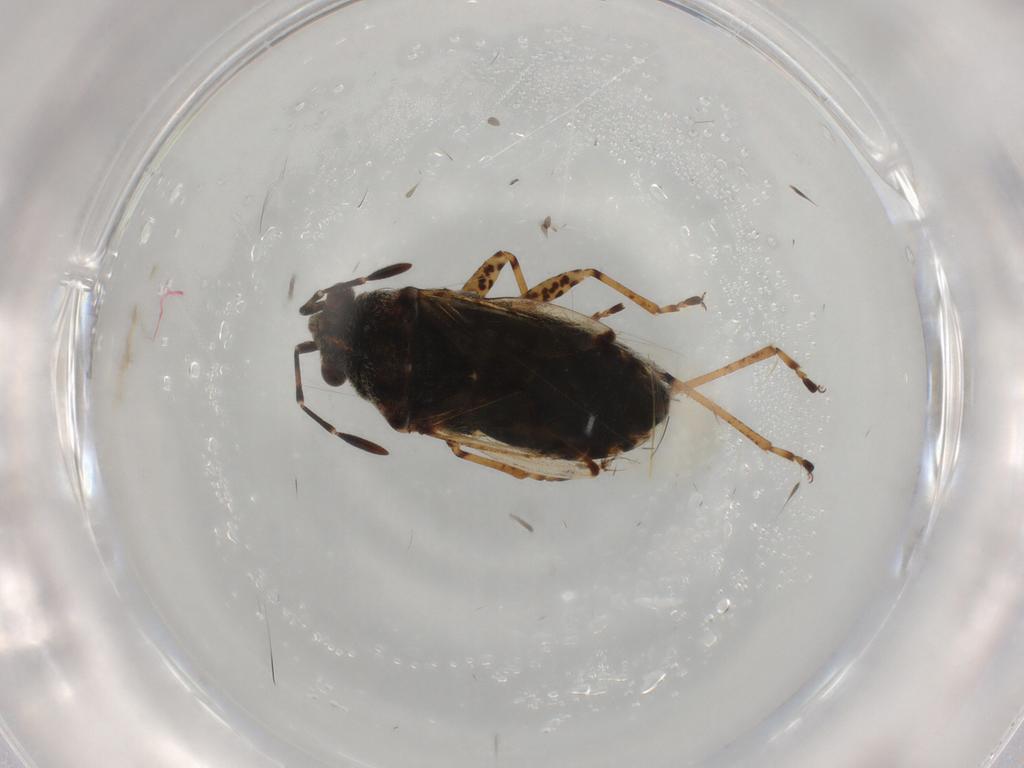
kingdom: Animalia
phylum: Arthropoda
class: Insecta
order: Hemiptera
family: Lygaeidae
